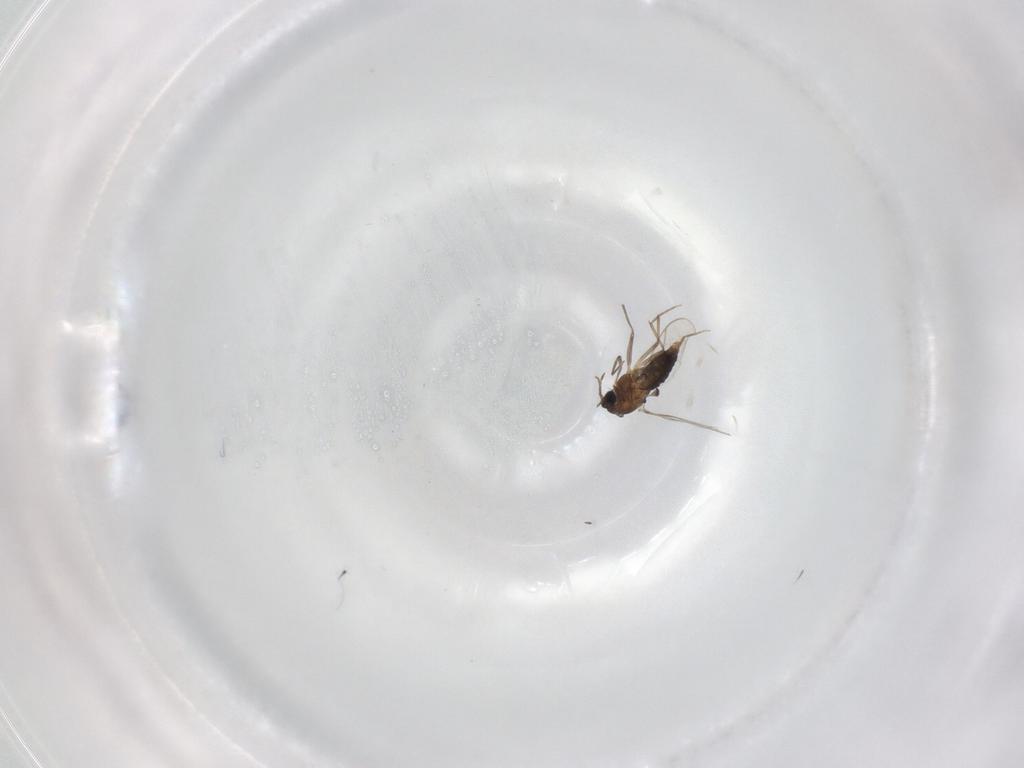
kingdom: Animalia
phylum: Arthropoda
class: Insecta
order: Diptera
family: Chironomidae
